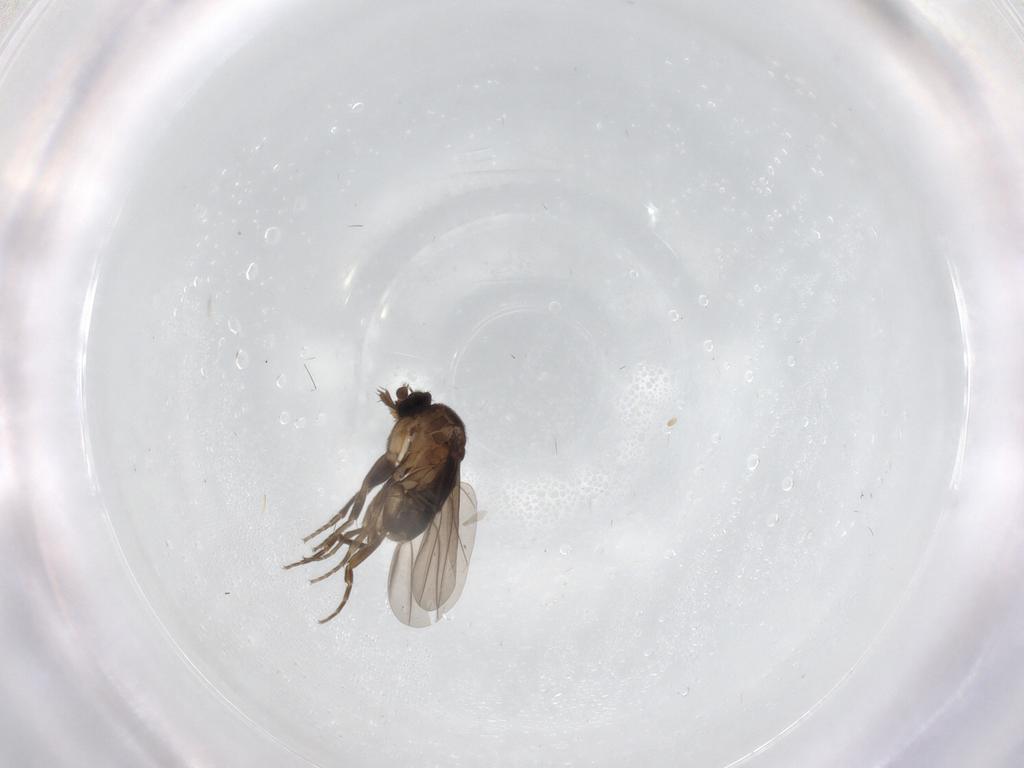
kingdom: Animalia
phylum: Arthropoda
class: Insecta
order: Diptera
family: Phoridae
